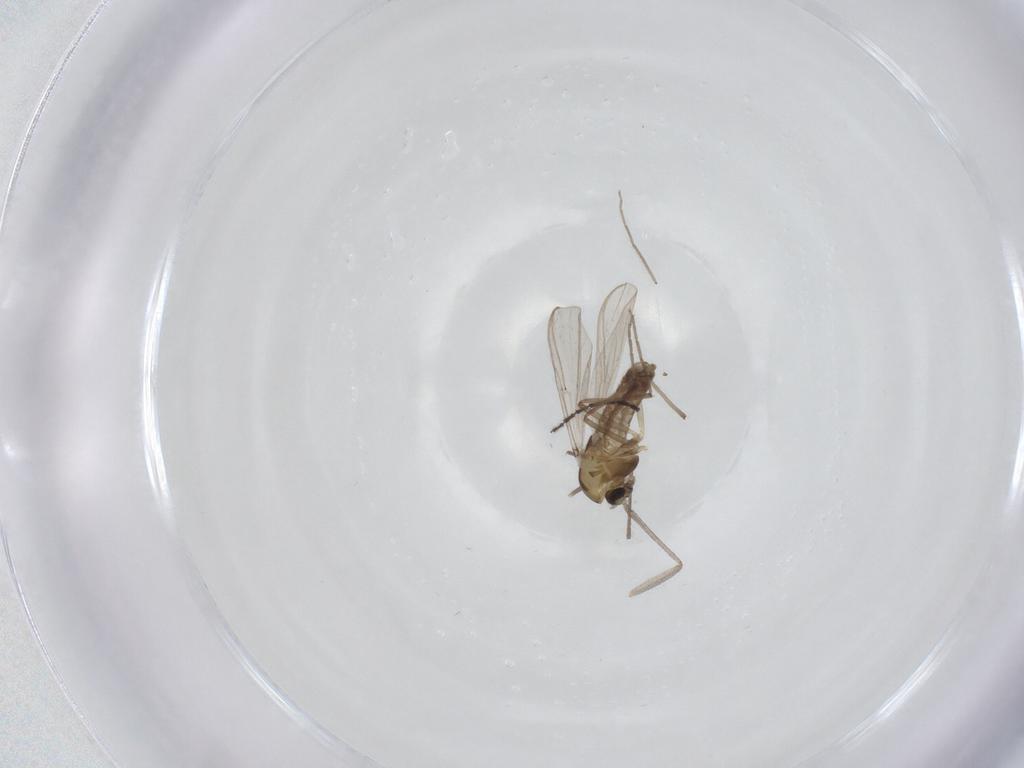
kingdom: Animalia
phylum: Arthropoda
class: Insecta
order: Diptera
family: Chironomidae
